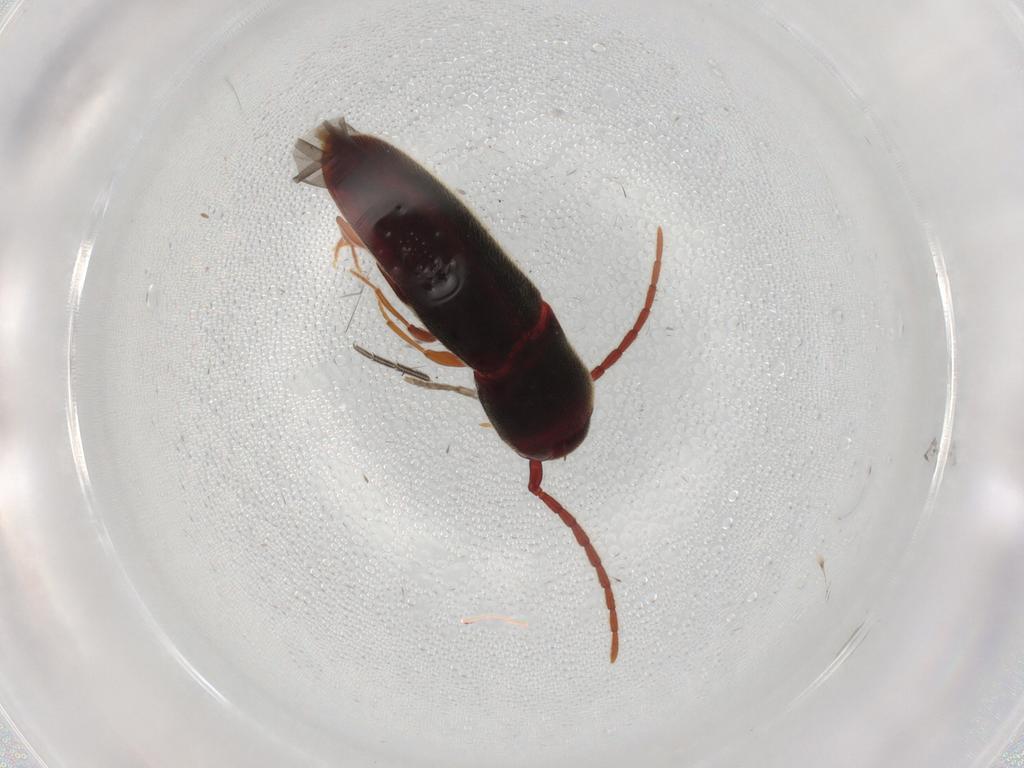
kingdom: Animalia
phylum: Arthropoda
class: Insecta
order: Coleoptera
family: Eucnemidae
